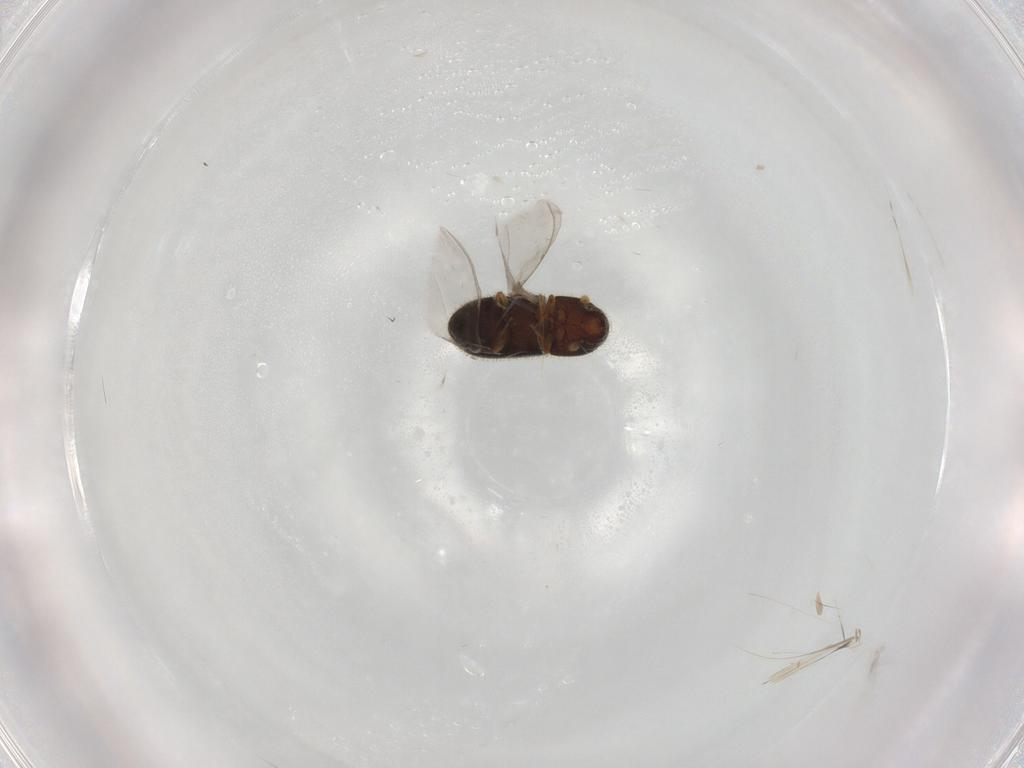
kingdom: Animalia
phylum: Arthropoda
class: Insecta
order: Coleoptera
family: Curculionidae
